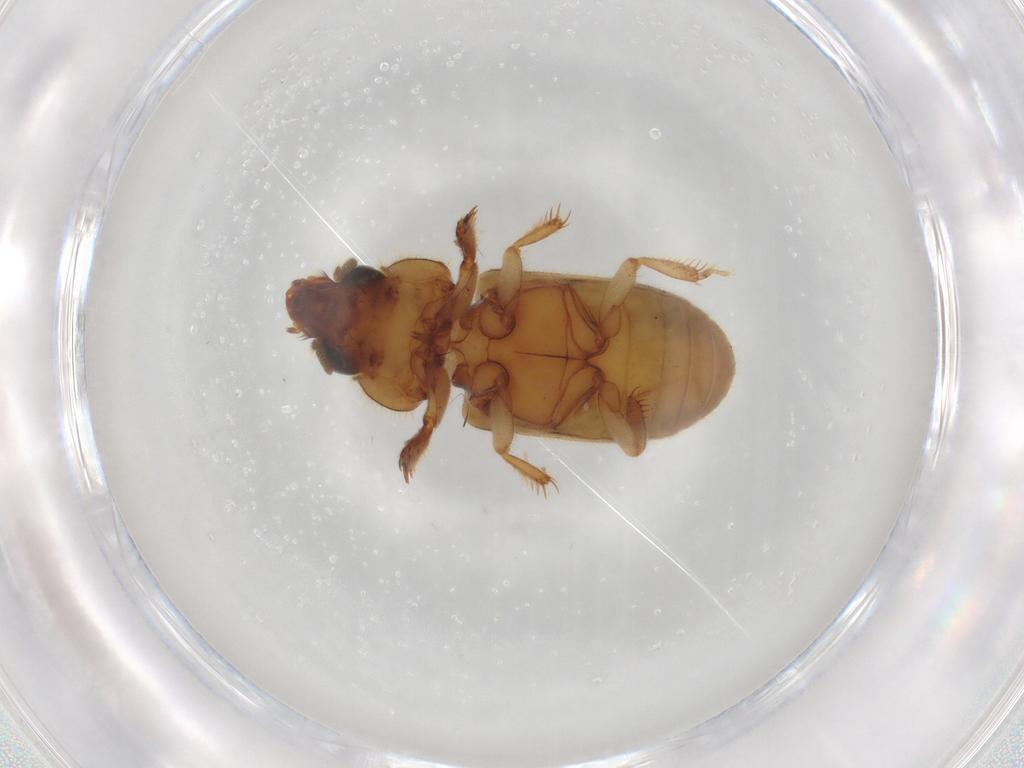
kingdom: Animalia
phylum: Arthropoda
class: Insecta
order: Coleoptera
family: Heteroceridae
